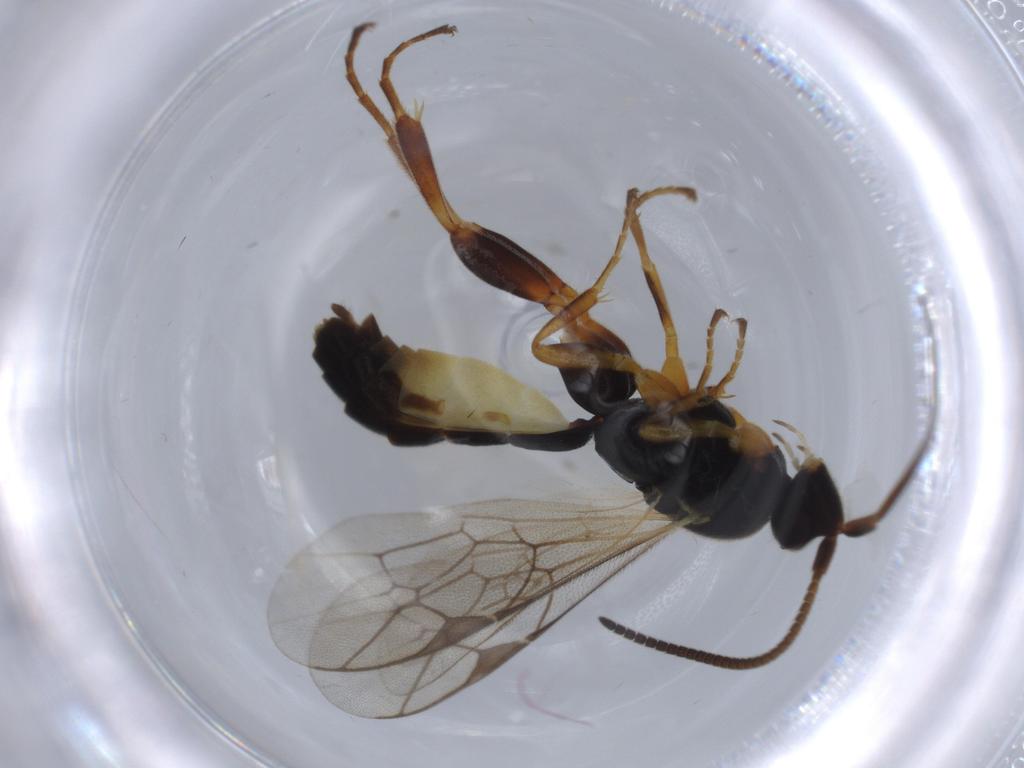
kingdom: Animalia
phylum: Arthropoda
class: Insecta
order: Hymenoptera
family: Ichneumonidae
